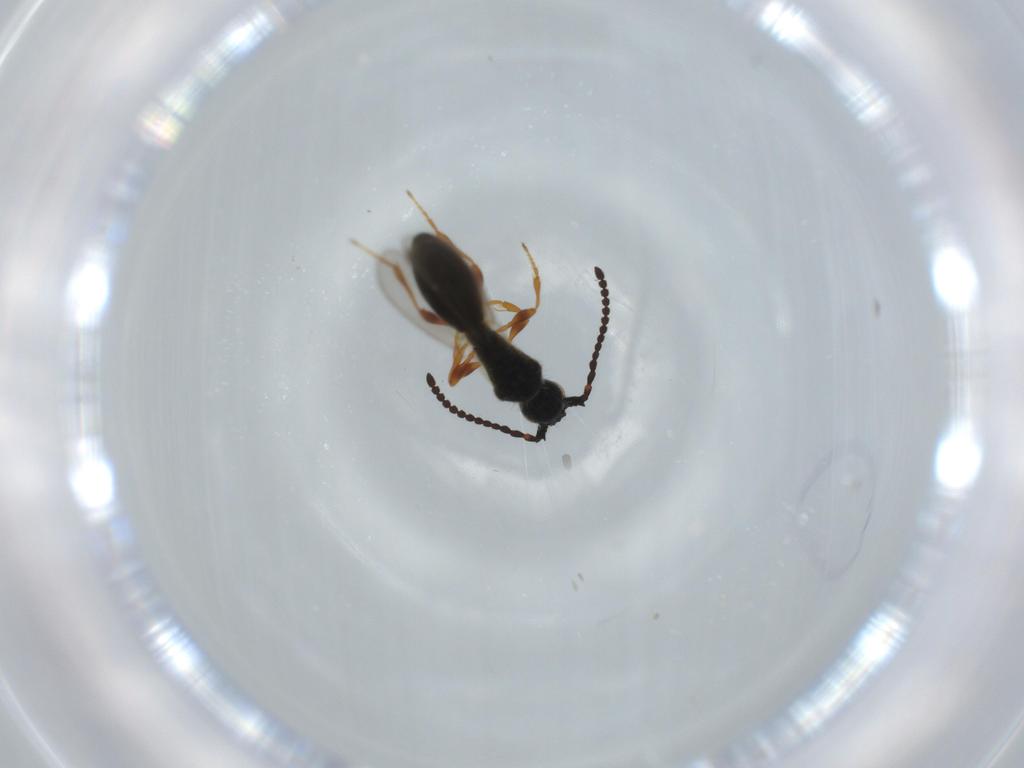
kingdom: Animalia
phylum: Arthropoda
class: Insecta
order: Hymenoptera
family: Diapriidae
